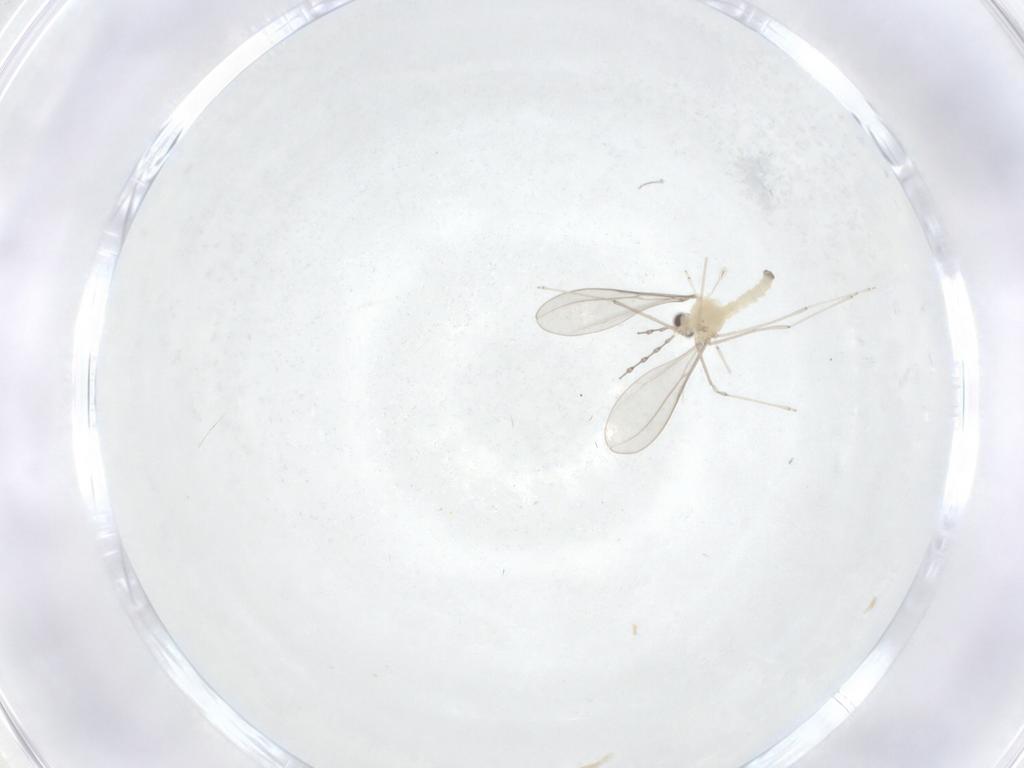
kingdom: Animalia
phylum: Arthropoda
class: Insecta
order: Diptera
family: Cecidomyiidae
